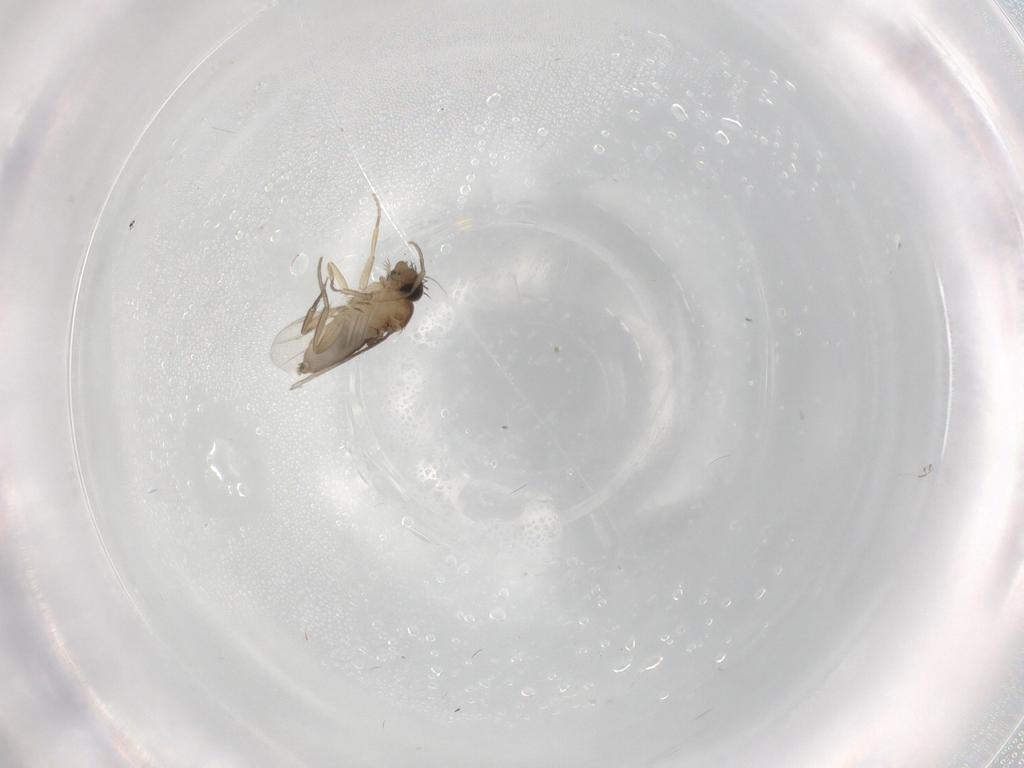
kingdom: Animalia
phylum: Arthropoda
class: Insecta
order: Diptera
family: Phoridae
